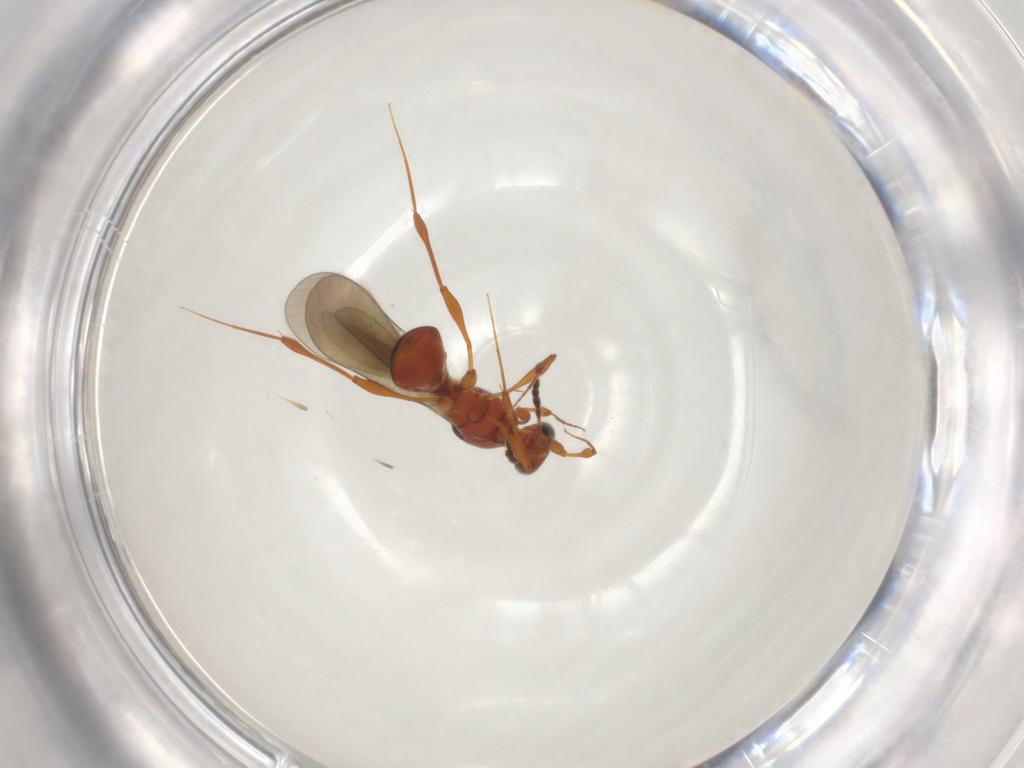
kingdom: Animalia
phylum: Arthropoda
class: Insecta
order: Hymenoptera
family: Platygastridae
